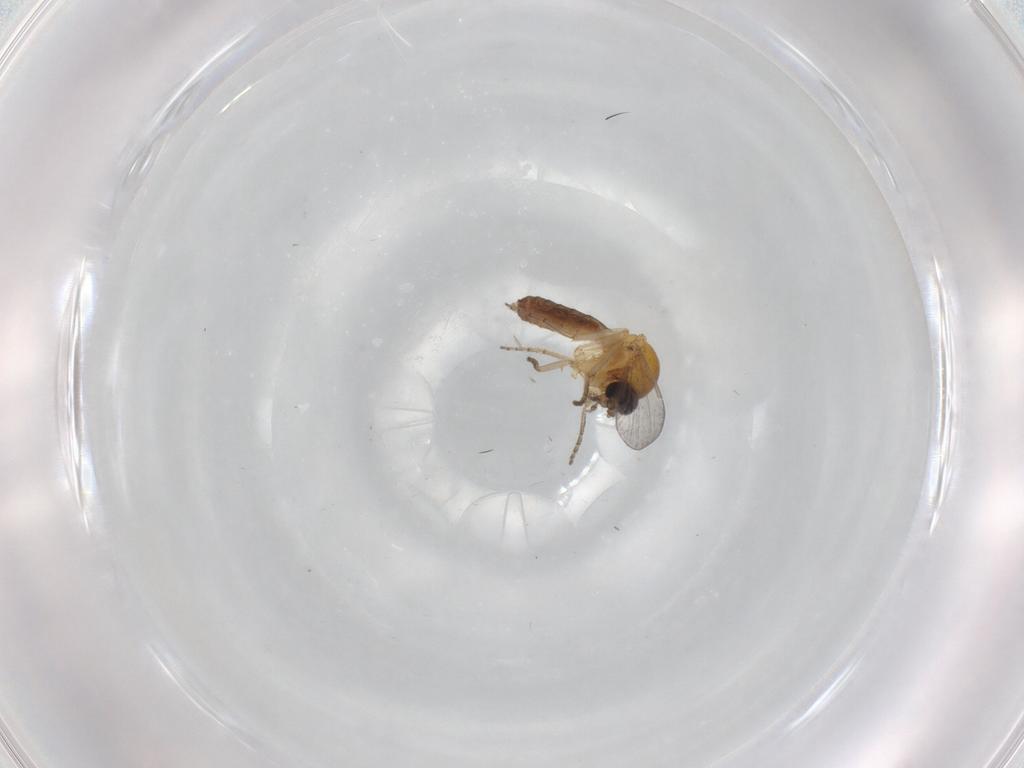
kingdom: Animalia
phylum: Arthropoda
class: Insecta
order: Diptera
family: Ceratopogonidae
